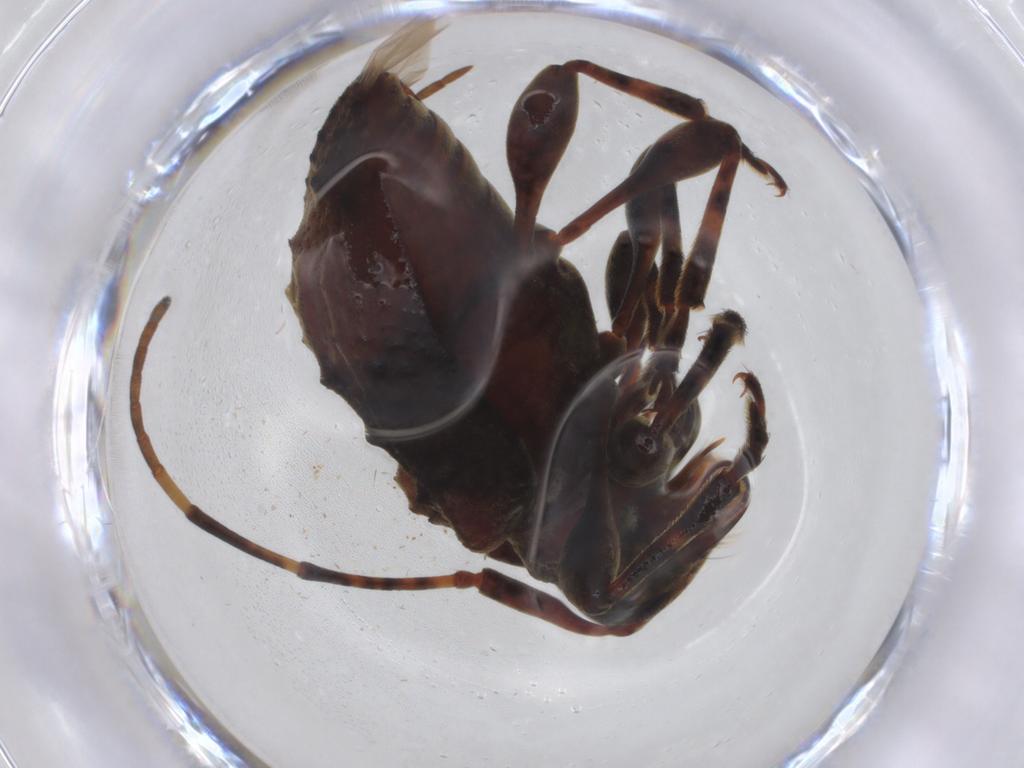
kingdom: Animalia
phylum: Arthropoda
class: Insecta
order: Coleoptera
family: Cerambycidae
